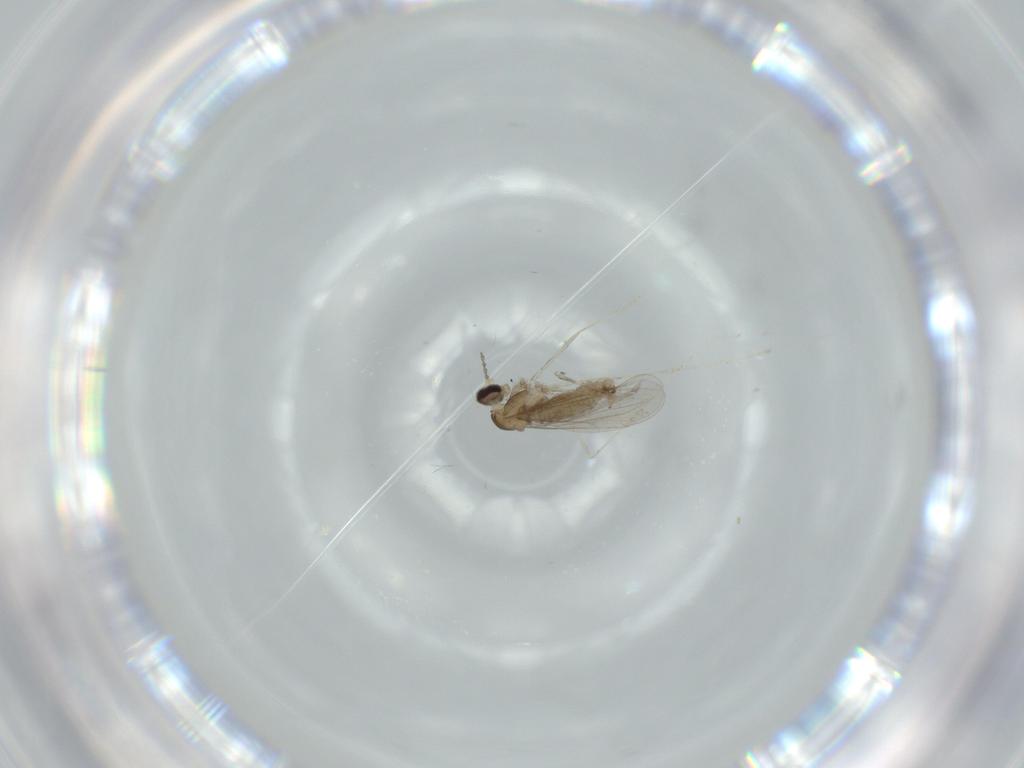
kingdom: Animalia
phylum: Arthropoda
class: Insecta
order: Diptera
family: Cecidomyiidae
